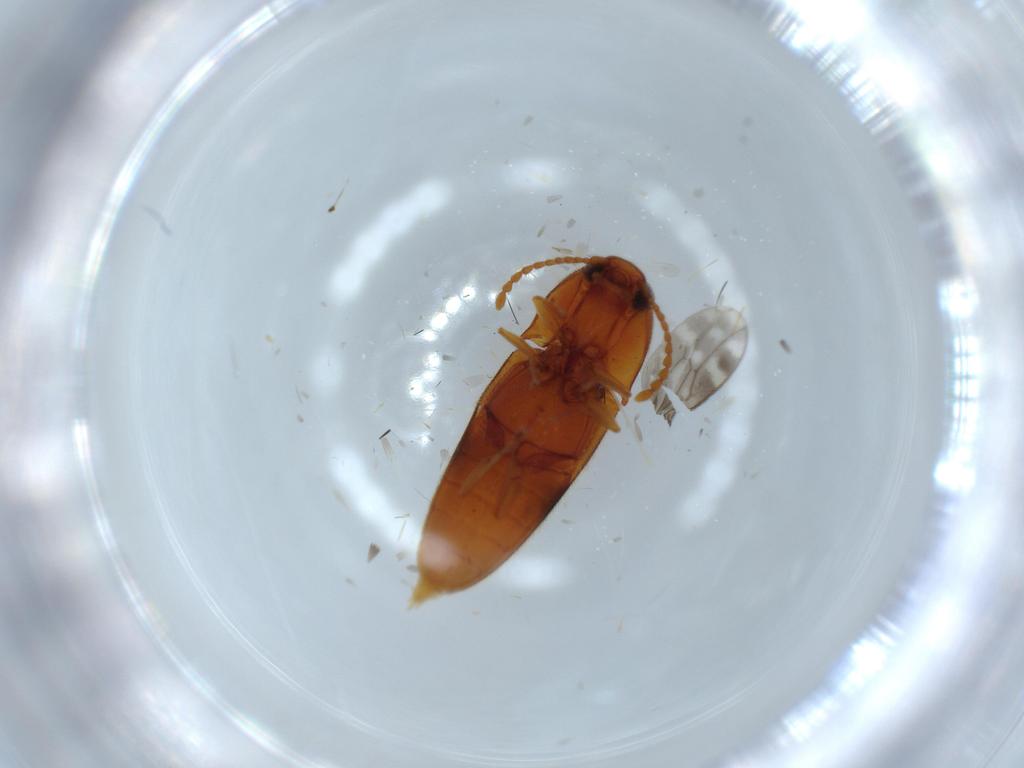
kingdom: Animalia
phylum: Arthropoda
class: Insecta
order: Coleoptera
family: Elateridae
